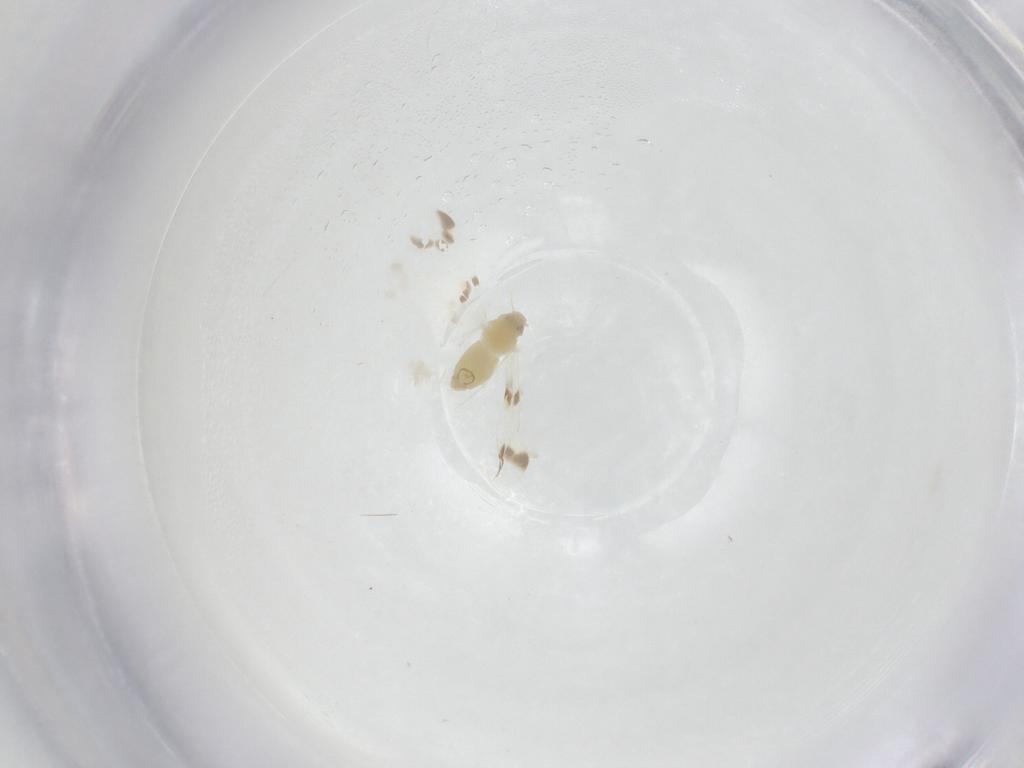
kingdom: Animalia
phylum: Arthropoda
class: Insecta
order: Hemiptera
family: Aleyrodidae
